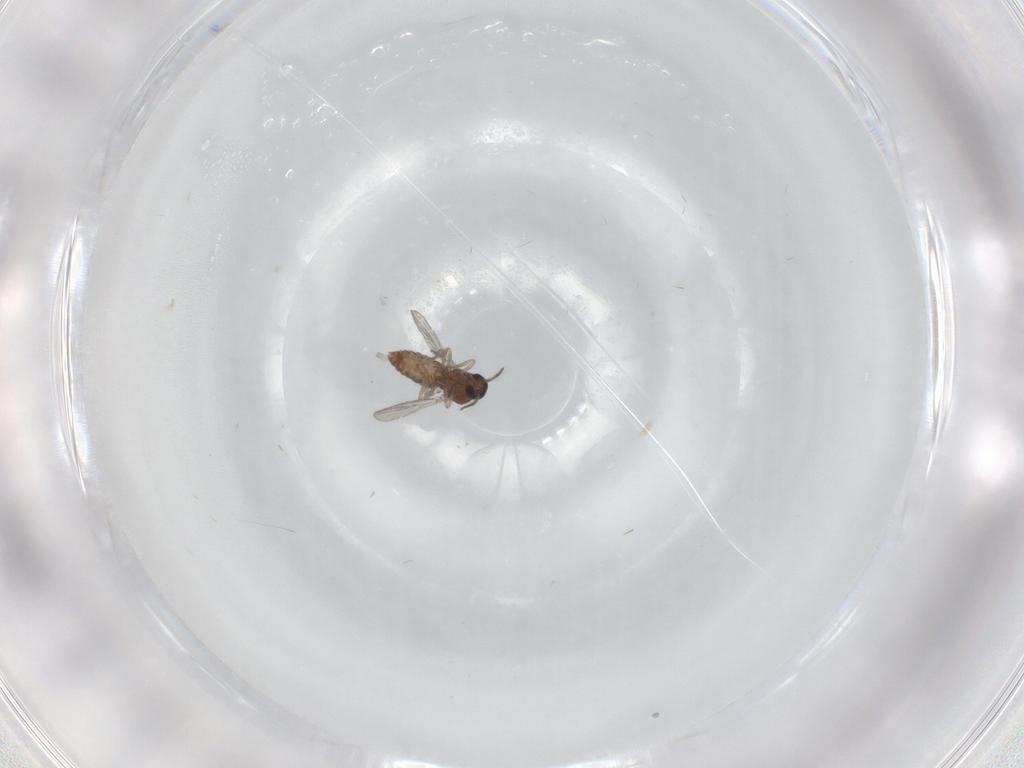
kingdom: Animalia
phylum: Arthropoda
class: Insecta
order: Diptera
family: Ceratopogonidae
